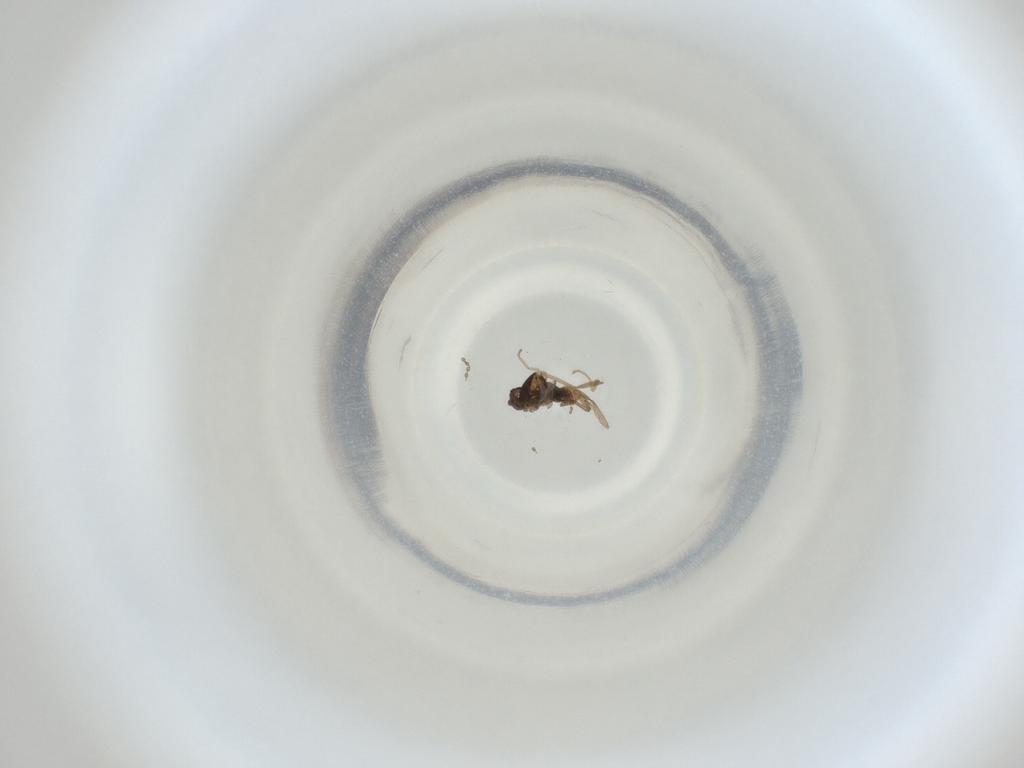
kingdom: Animalia
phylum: Arthropoda
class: Insecta
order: Diptera
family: Cecidomyiidae
